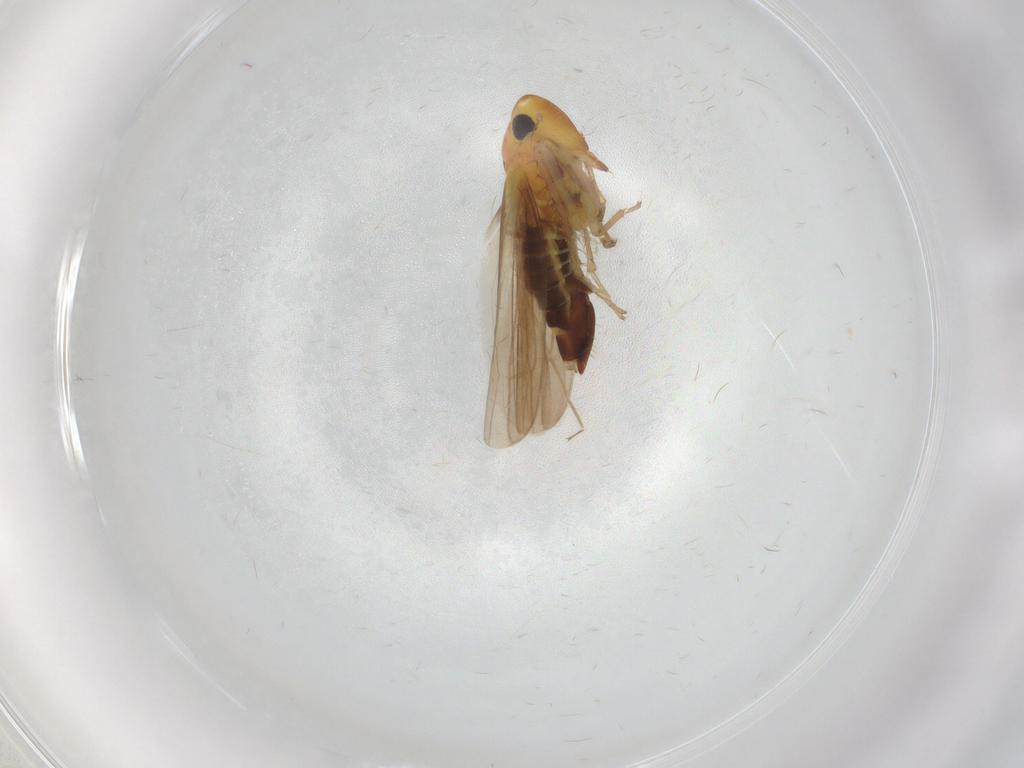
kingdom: Animalia
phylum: Arthropoda
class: Insecta
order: Hemiptera
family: Cicadellidae
